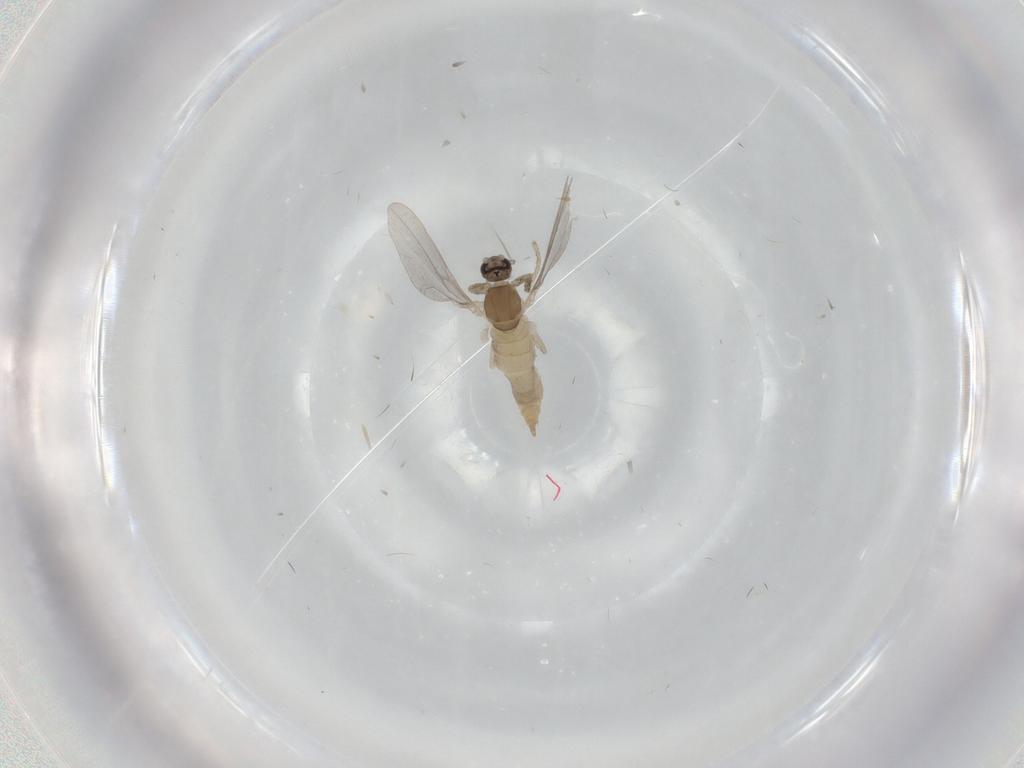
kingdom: Animalia
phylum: Arthropoda
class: Insecta
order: Diptera
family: Cecidomyiidae
